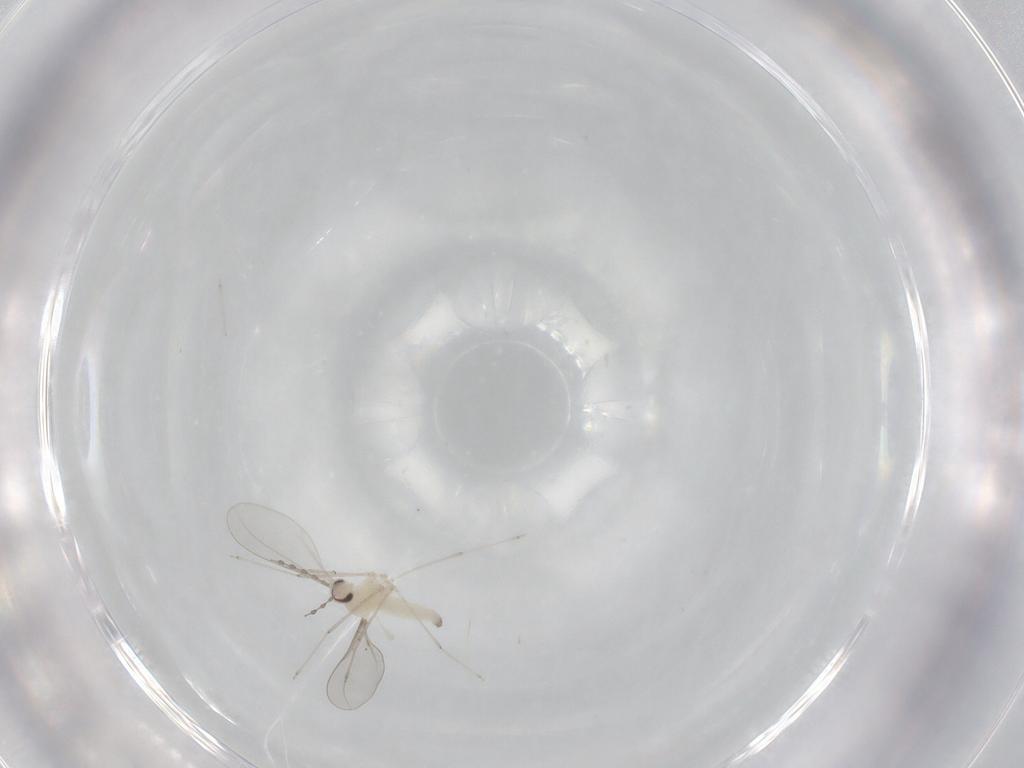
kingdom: Animalia
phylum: Arthropoda
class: Insecta
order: Diptera
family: Cecidomyiidae
